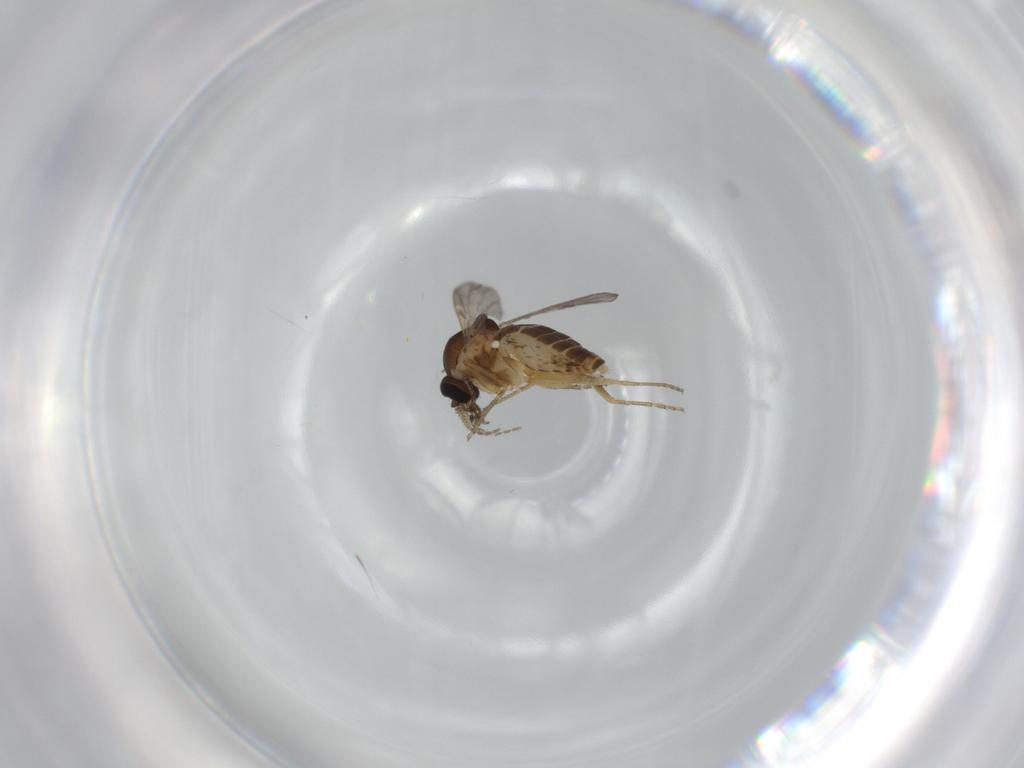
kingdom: Animalia
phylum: Arthropoda
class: Insecta
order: Diptera
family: Ceratopogonidae
